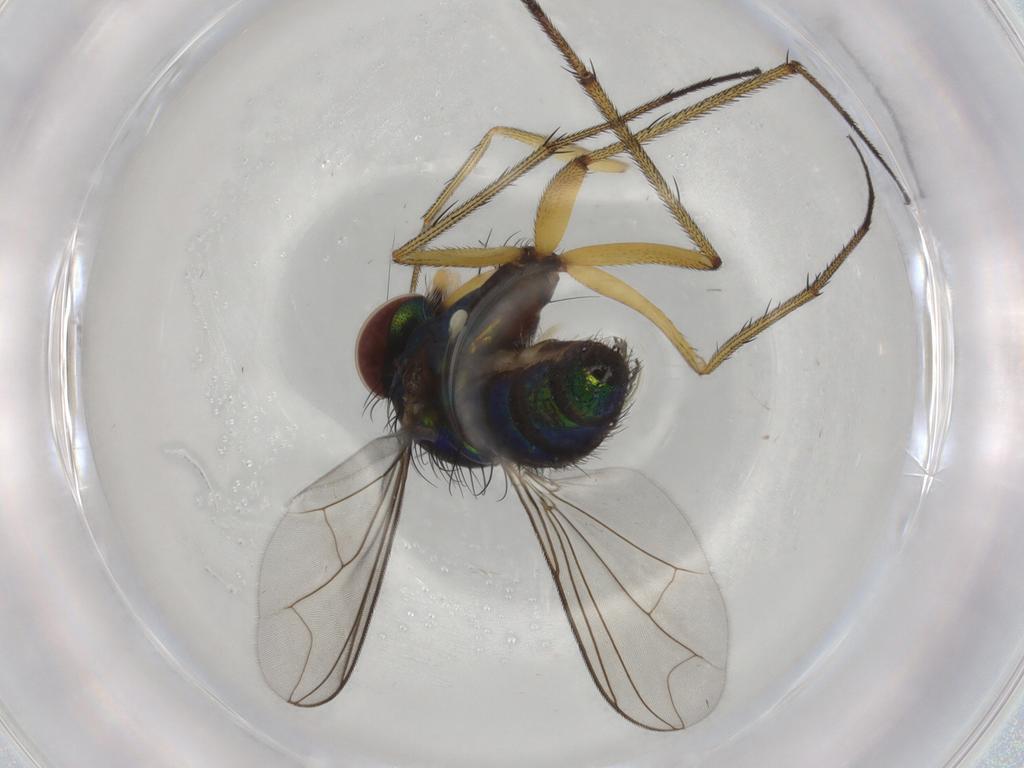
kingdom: Animalia
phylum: Arthropoda
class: Insecta
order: Diptera
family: Dolichopodidae
